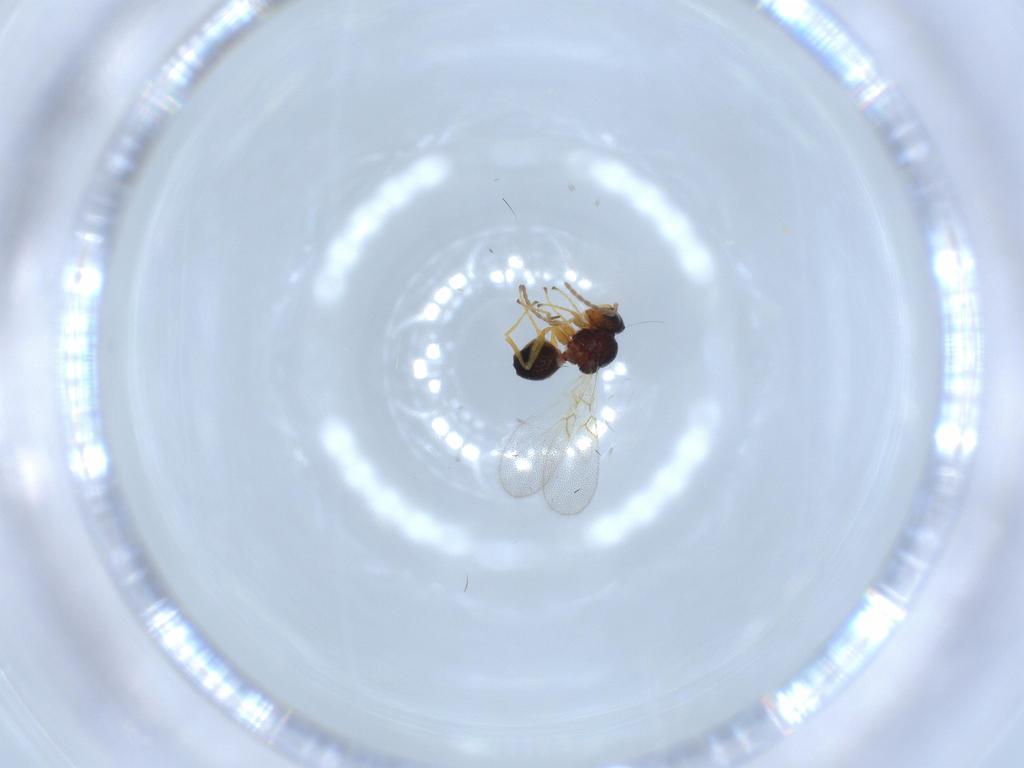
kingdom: Animalia
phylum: Arthropoda
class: Insecta
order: Hymenoptera
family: Figitidae
